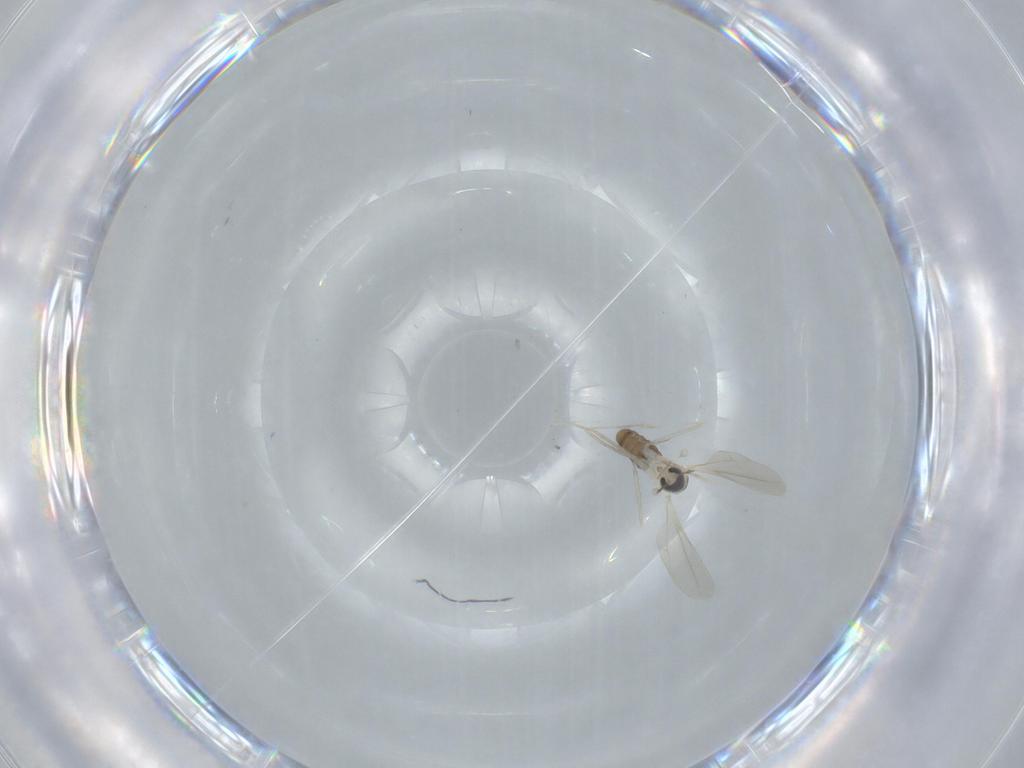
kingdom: Animalia
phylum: Arthropoda
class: Insecta
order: Diptera
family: Cecidomyiidae
